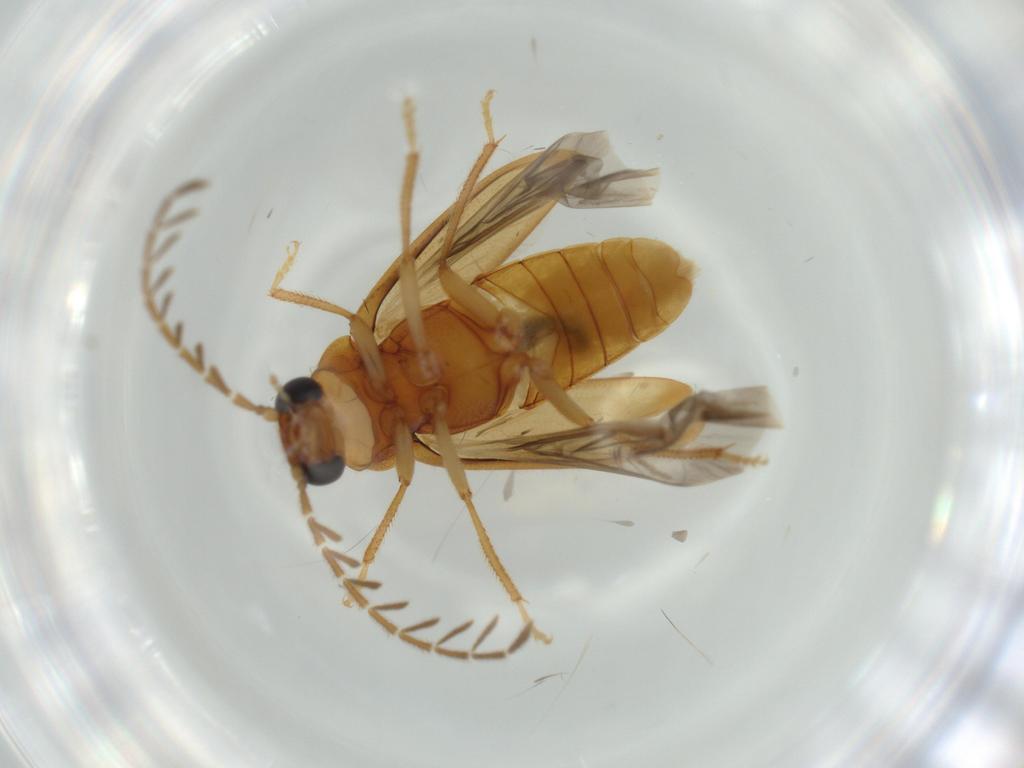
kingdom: Animalia
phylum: Arthropoda
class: Insecta
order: Coleoptera
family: Ptilodactylidae
